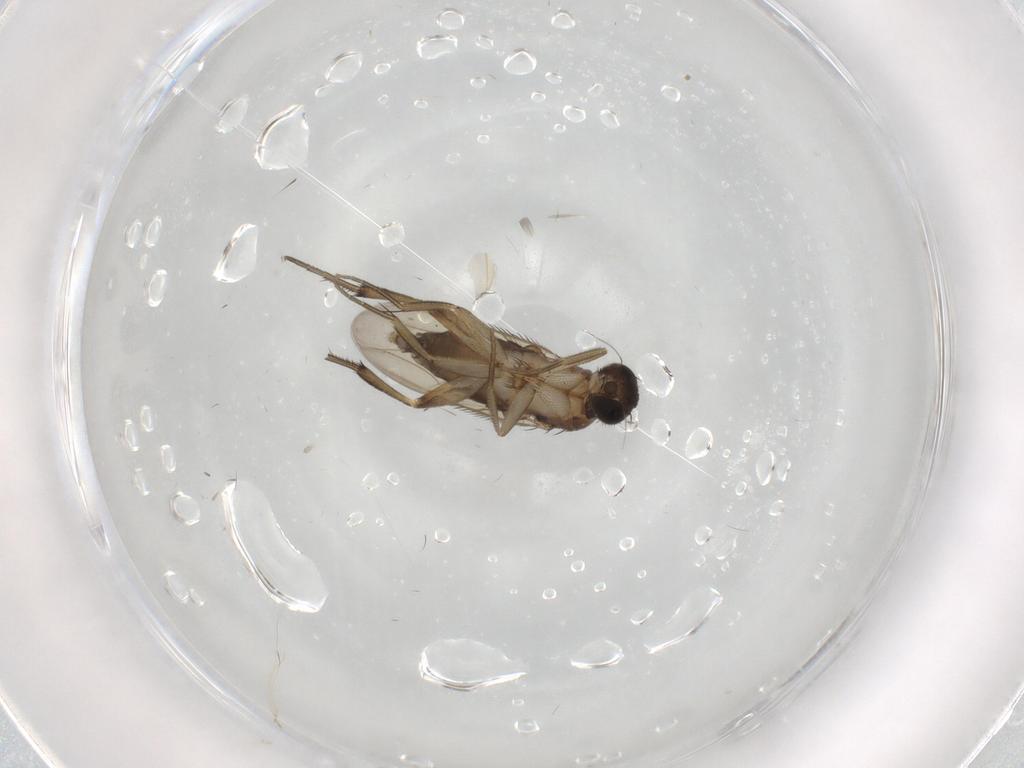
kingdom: Animalia
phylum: Arthropoda
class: Insecta
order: Diptera
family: Phoridae
